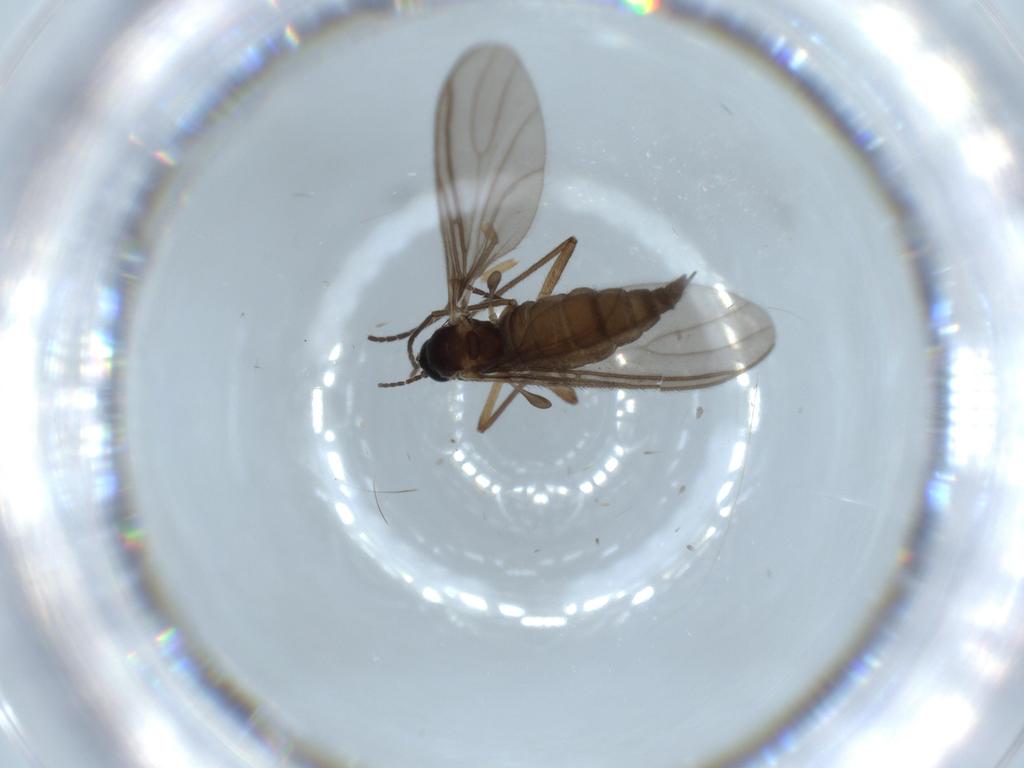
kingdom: Animalia
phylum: Arthropoda
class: Insecta
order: Diptera
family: Sciaridae
